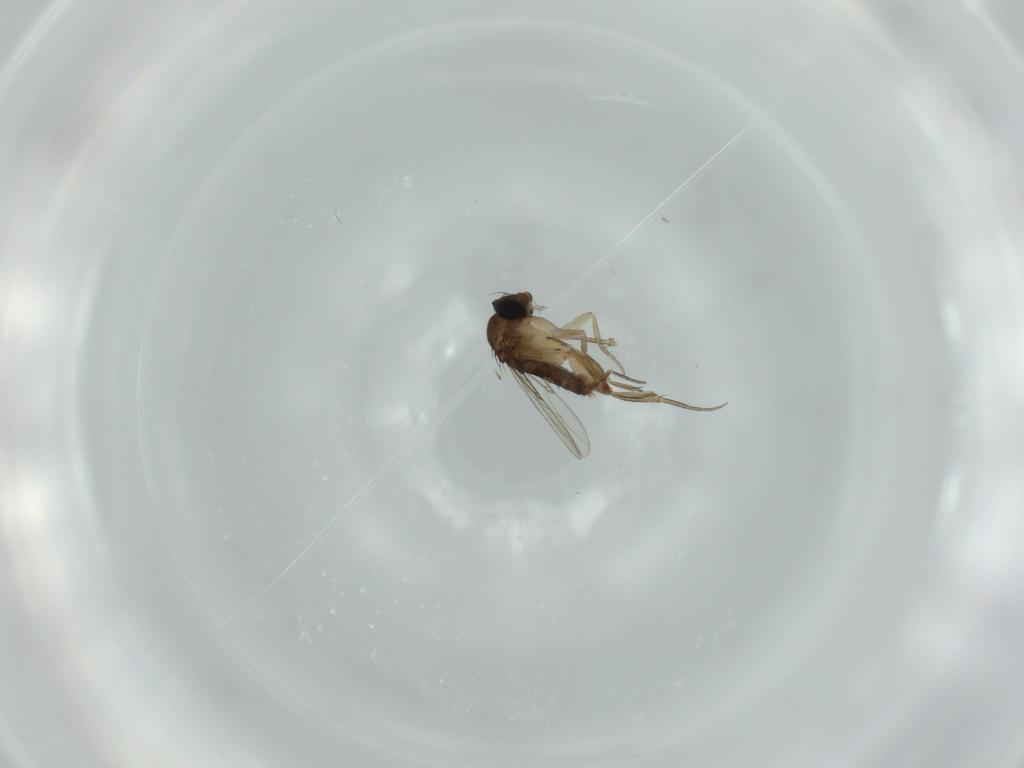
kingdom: Animalia
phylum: Arthropoda
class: Insecta
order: Diptera
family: Phoridae
